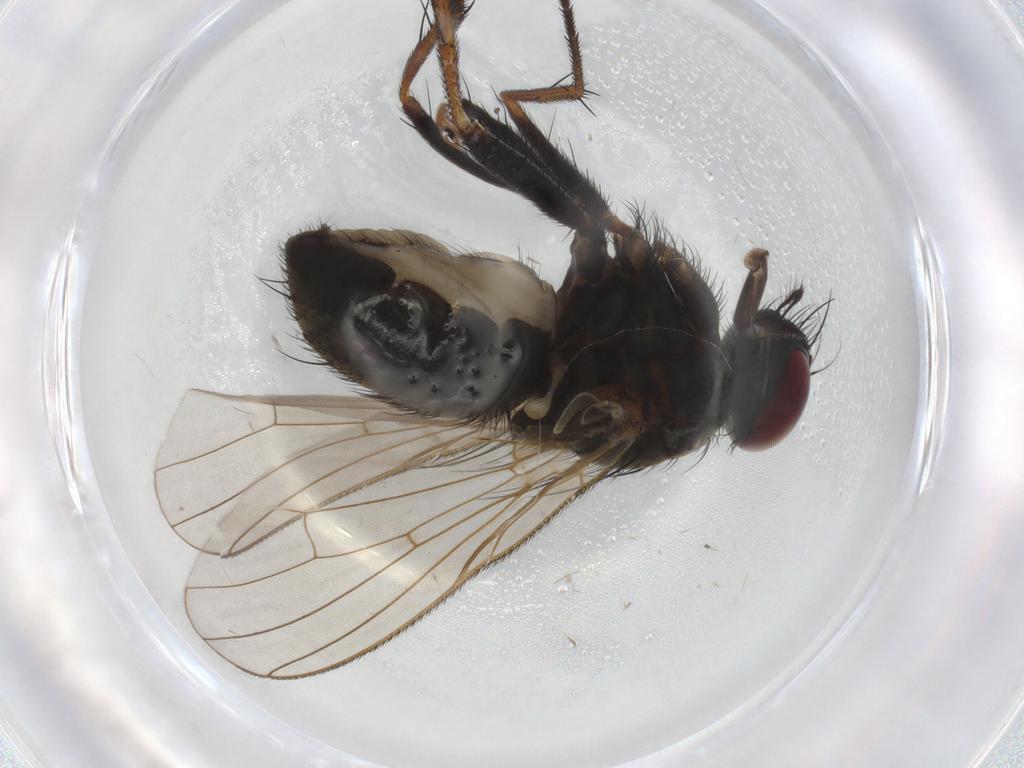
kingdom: Animalia
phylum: Arthropoda
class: Insecta
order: Diptera
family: Muscidae
